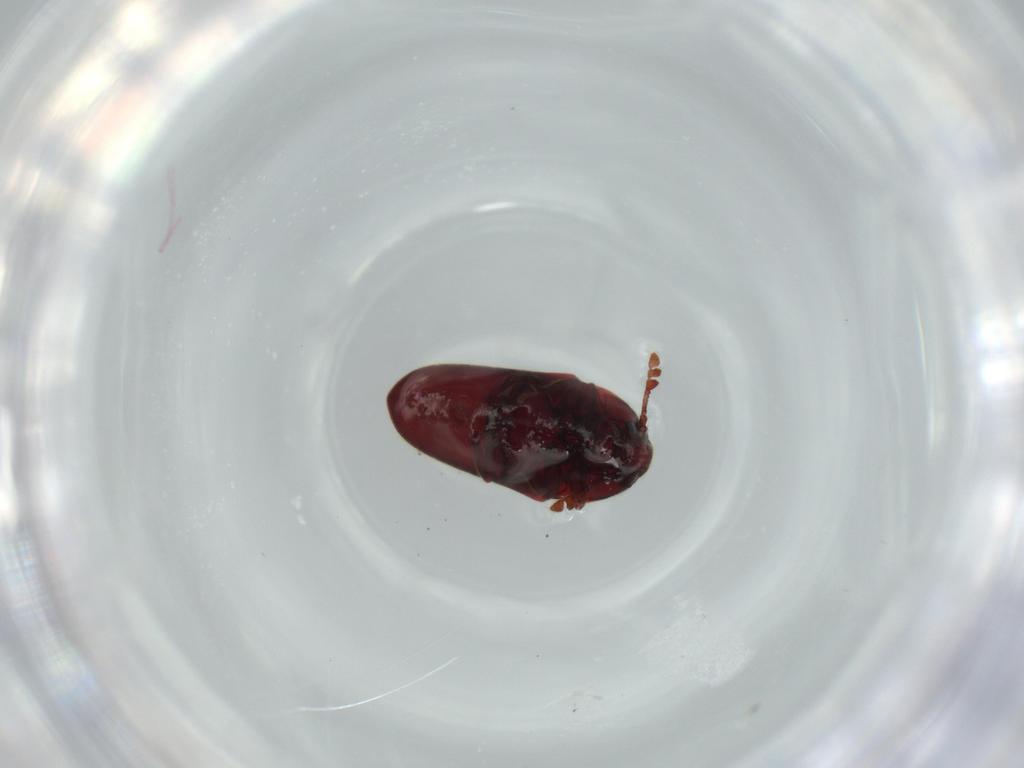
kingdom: Animalia
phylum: Arthropoda
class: Insecta
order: Coleoptera
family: Throscidae
